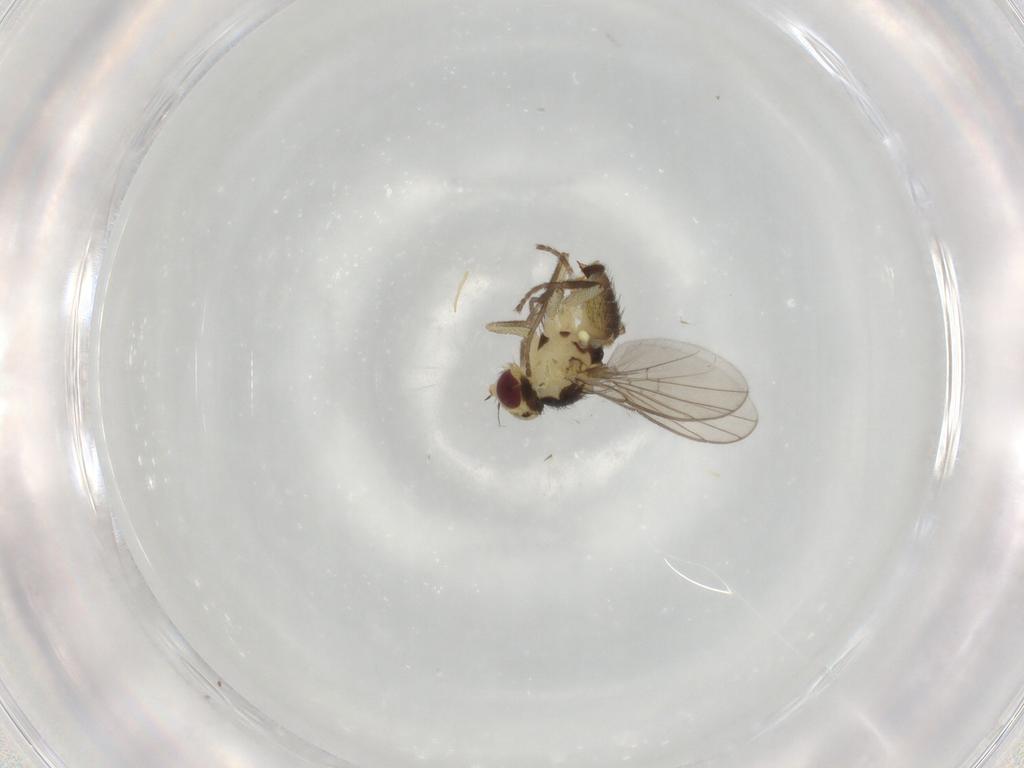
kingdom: Animalia
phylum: Arthropoda
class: Insecta
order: Diptera
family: Agromyzidae
